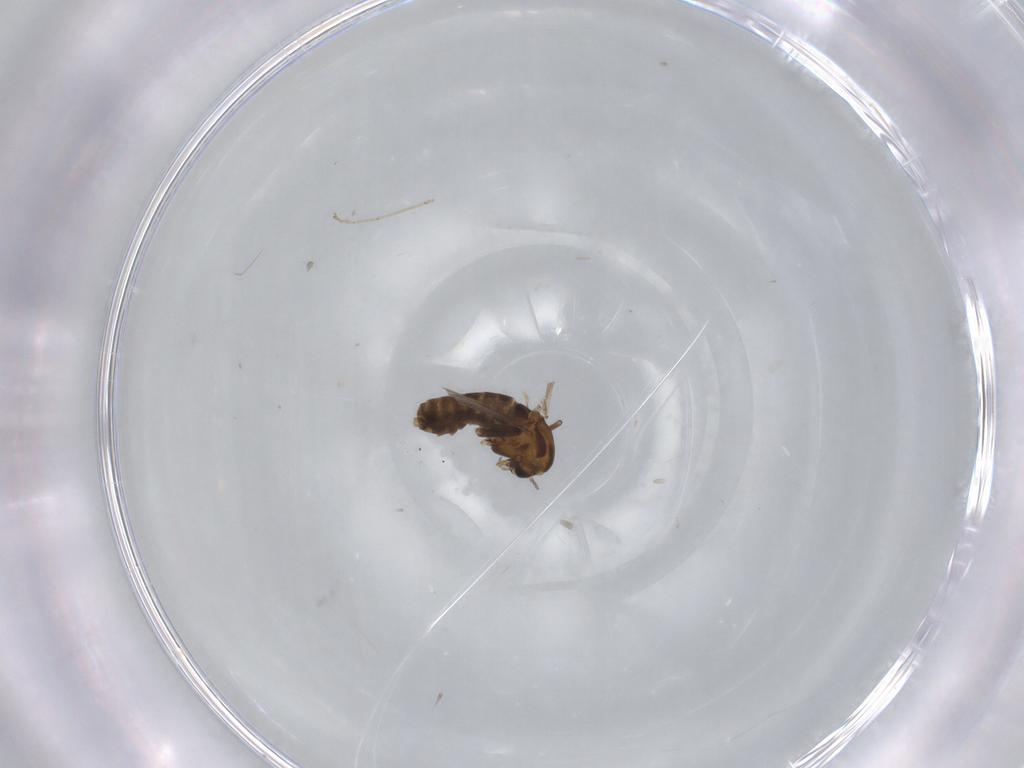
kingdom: Animalia
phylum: Arthropoda
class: Insecta
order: Diptera
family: Chironomidae
